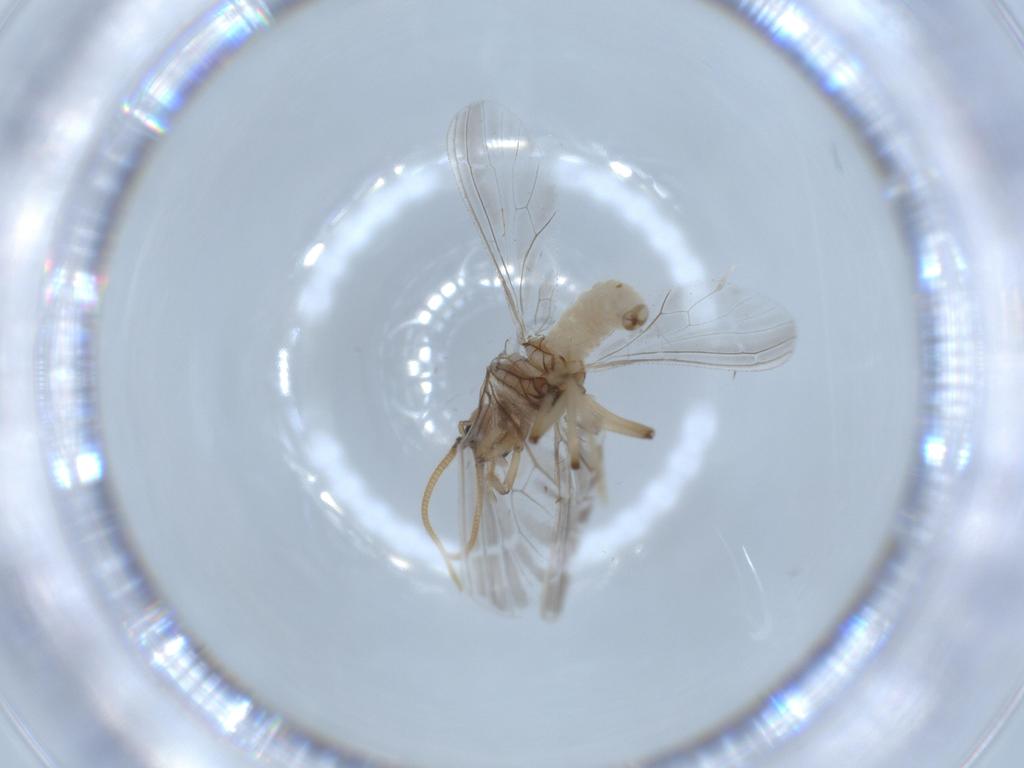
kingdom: Animalia
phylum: Arthropoda
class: Insecta
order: Neuroptera
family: Coniopterygidae
